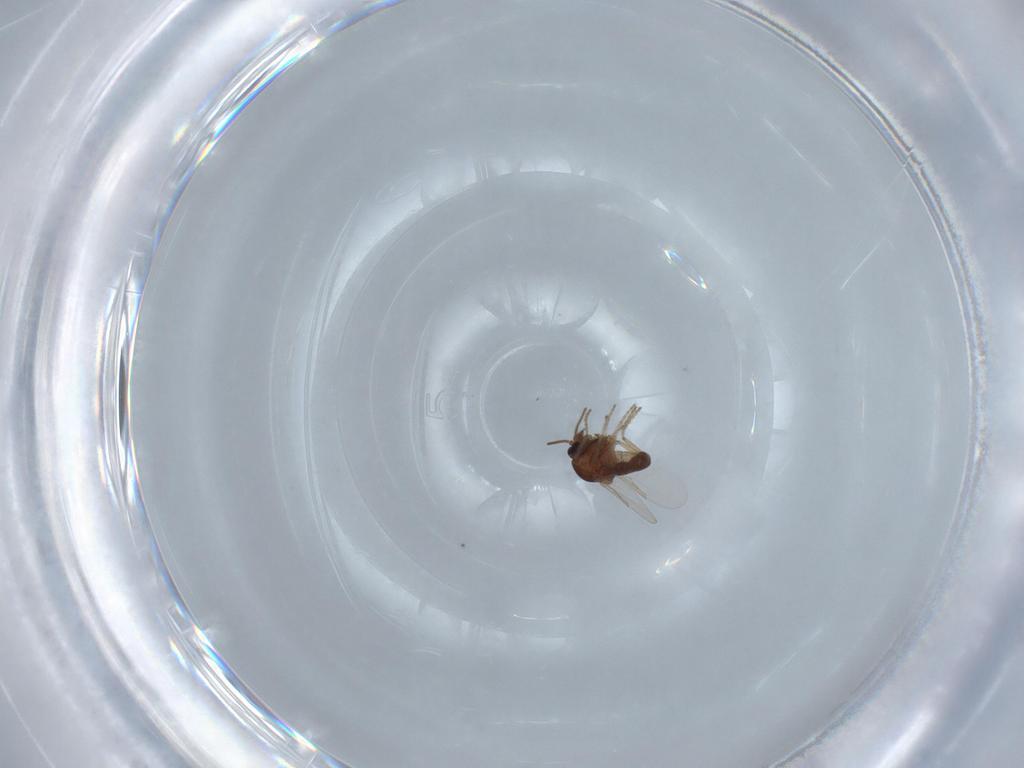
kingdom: Animalia
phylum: Arthropoda
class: Insecta
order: Diptera
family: Ceratopogonidae
